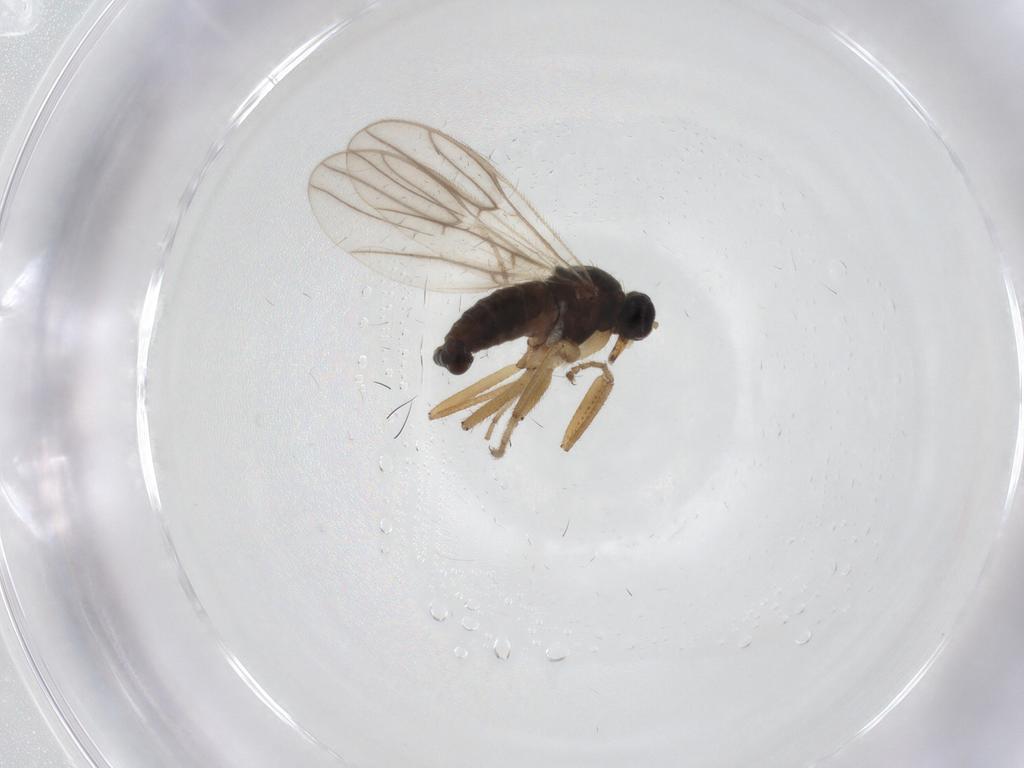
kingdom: Animalia
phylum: Arthropoda
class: Insecta
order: Diptera
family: Hybotidae
